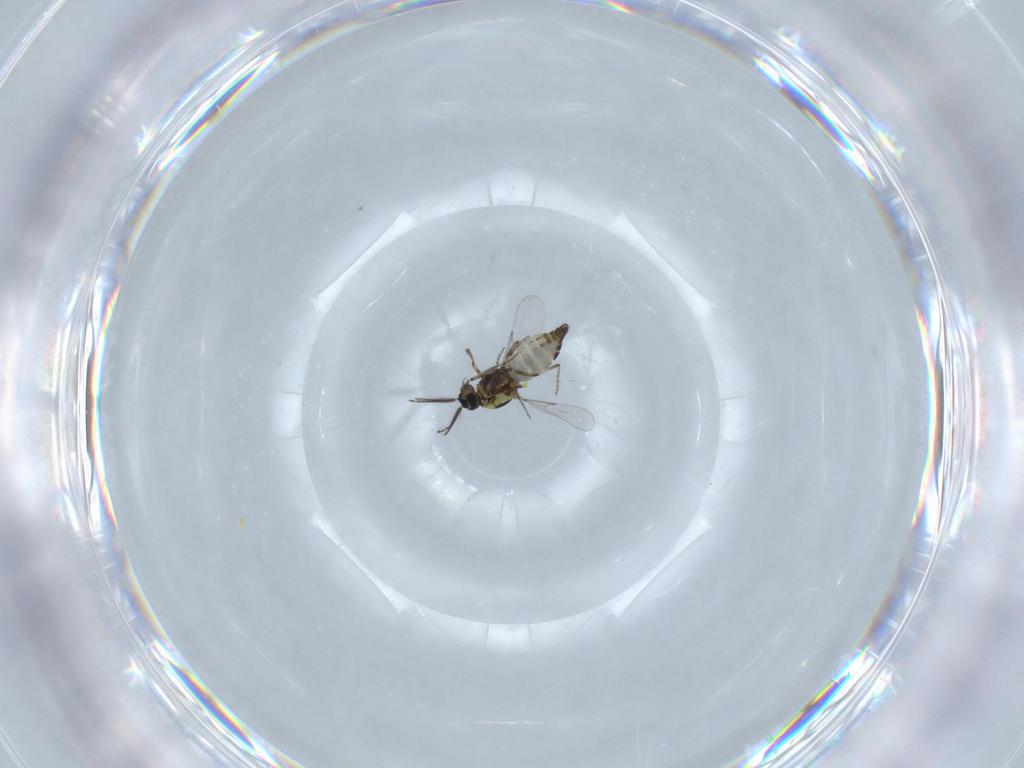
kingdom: Animalia
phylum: Arthropoda
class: Insecta
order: Diptera
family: Ceratopogonidae
